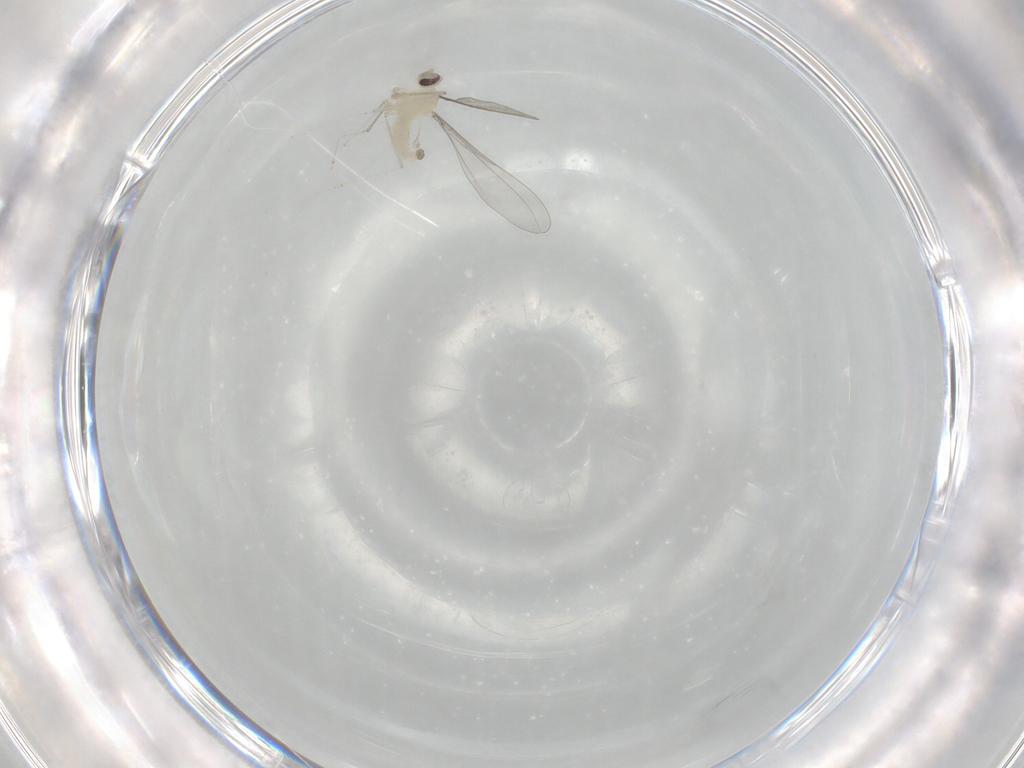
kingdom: Animalia
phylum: Arthropoda
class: Insecta
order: Diptera
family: Cecidomyiidae
